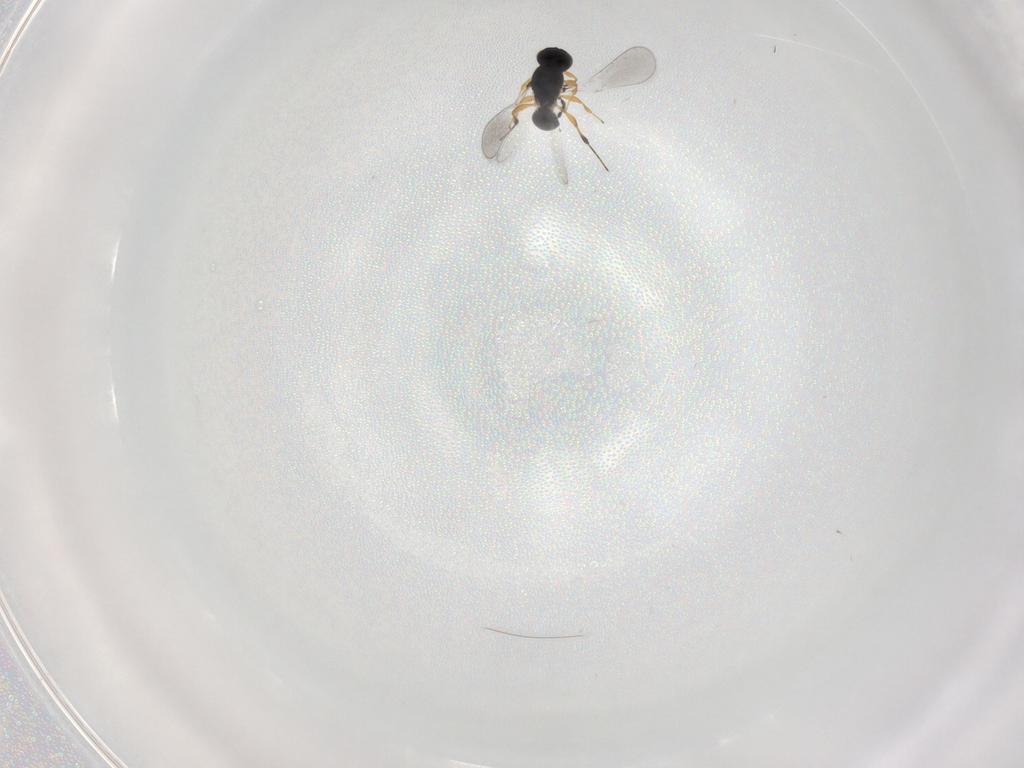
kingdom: Animalia
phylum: Arthropoda
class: Insecta
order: Hymenoptera
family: Platygastridae
